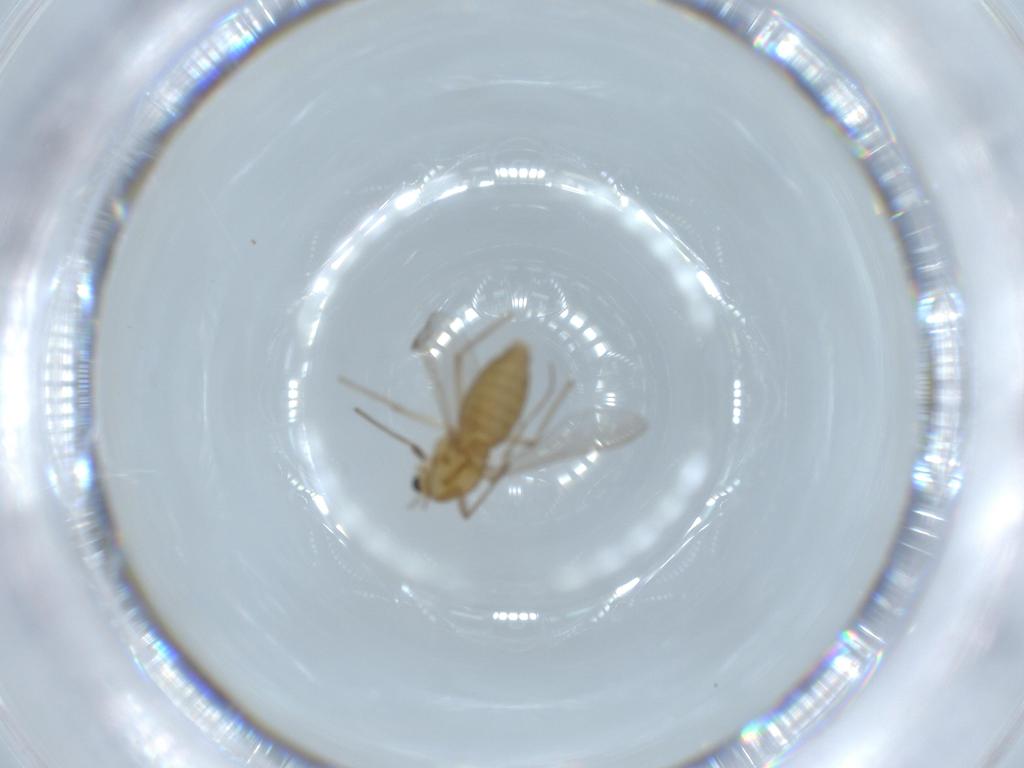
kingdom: Animalia
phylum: Arthropoda
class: Insecta
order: Diptera
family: Chironomidae
